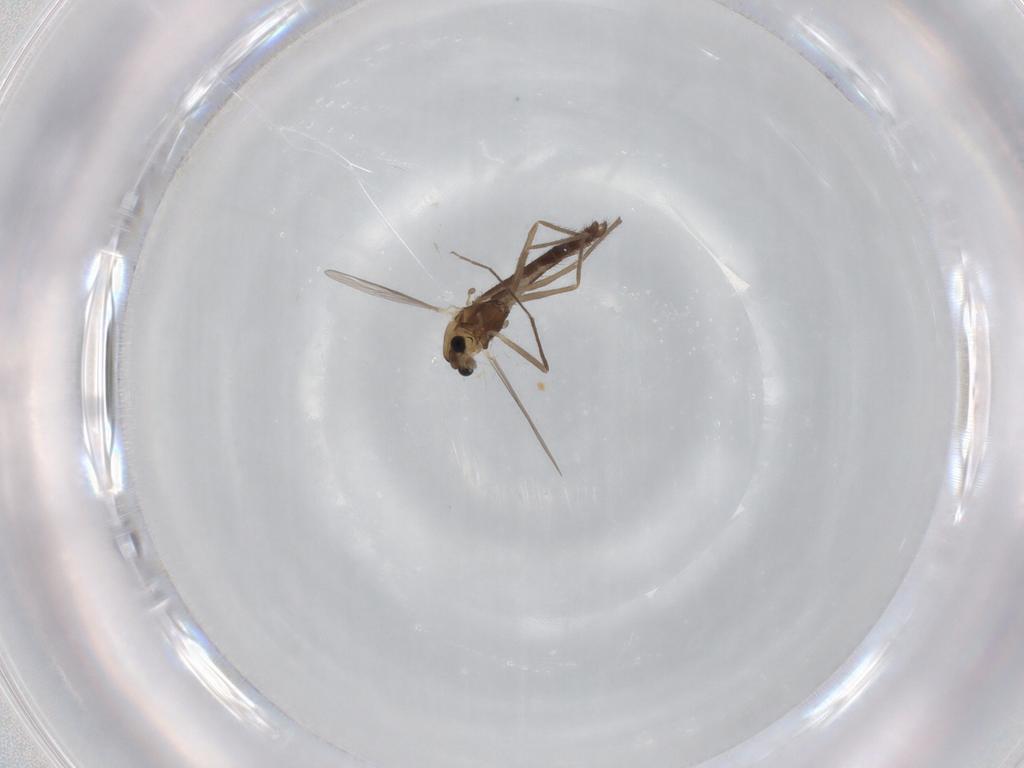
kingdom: Animalia
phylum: Arthropoda
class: Insecta
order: Diptera
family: Chironomidae
